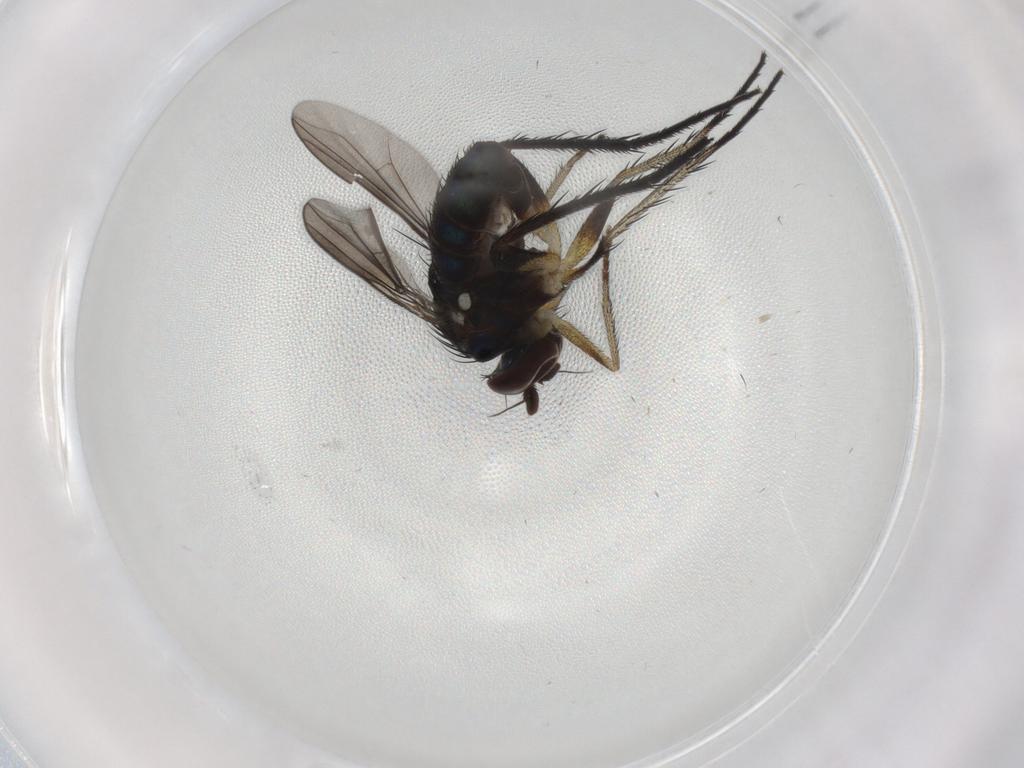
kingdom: Animalia
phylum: Arthropoda
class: Insecta
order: Diptera
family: Dolichopodidae
